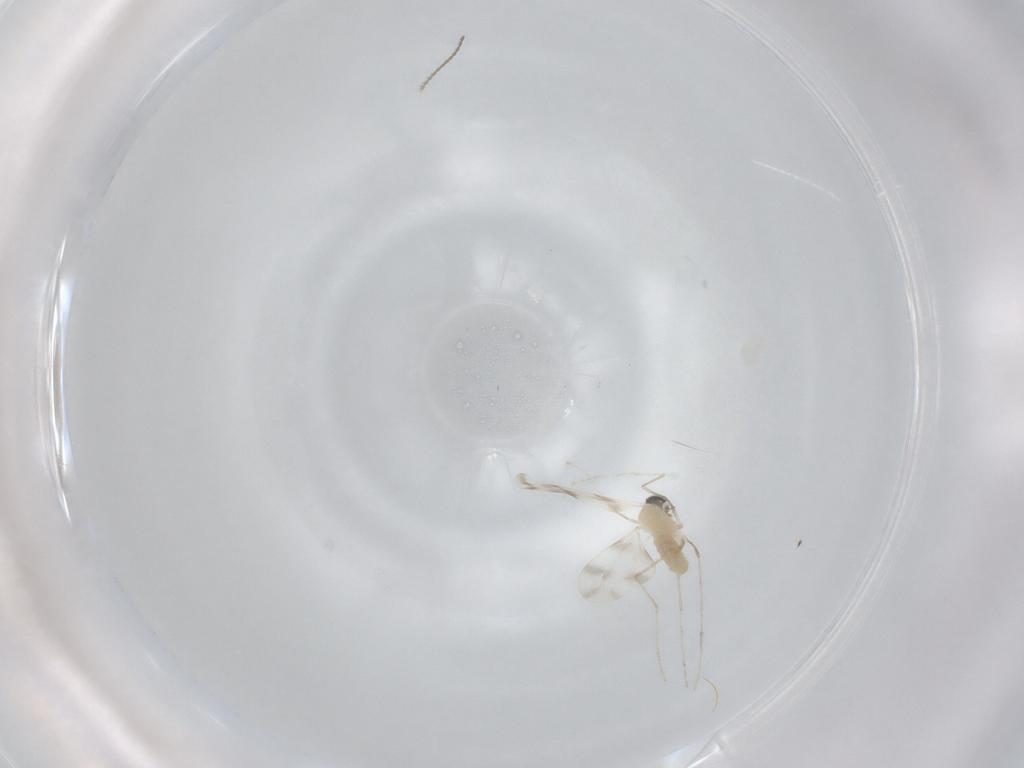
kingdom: Animalia
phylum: Arthropoda
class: Insecta
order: Diptera
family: Cecidomyiidae
